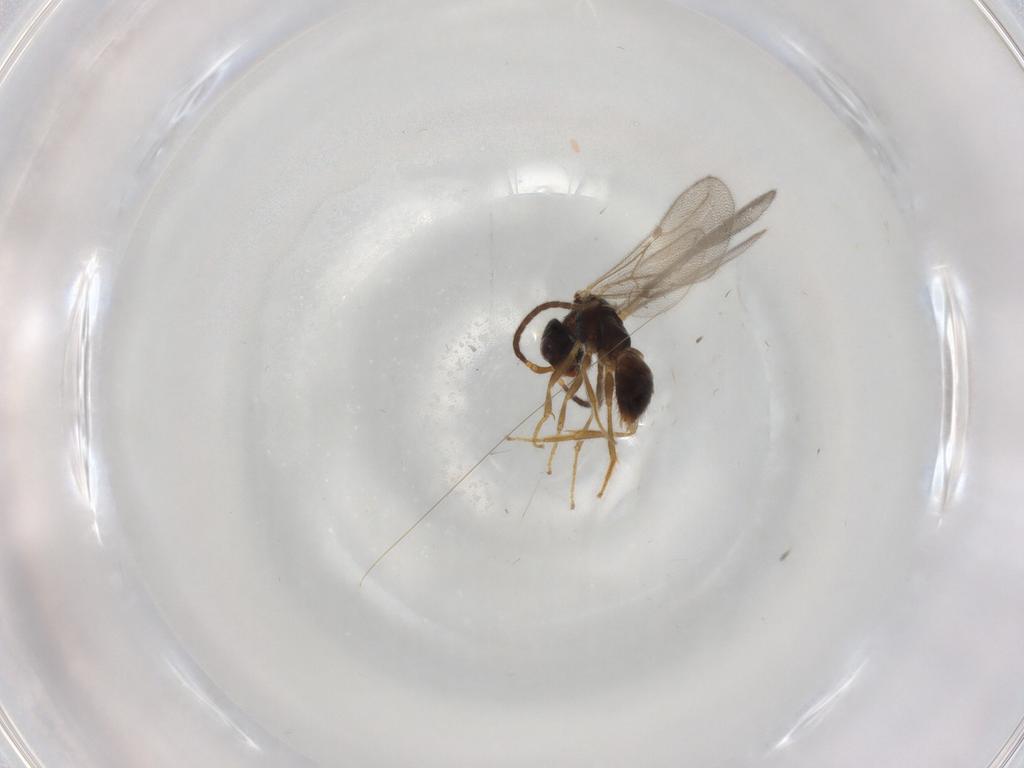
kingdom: Animalia
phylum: Arthropoda
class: Insecta
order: Hymenoptera
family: Bethylidae
